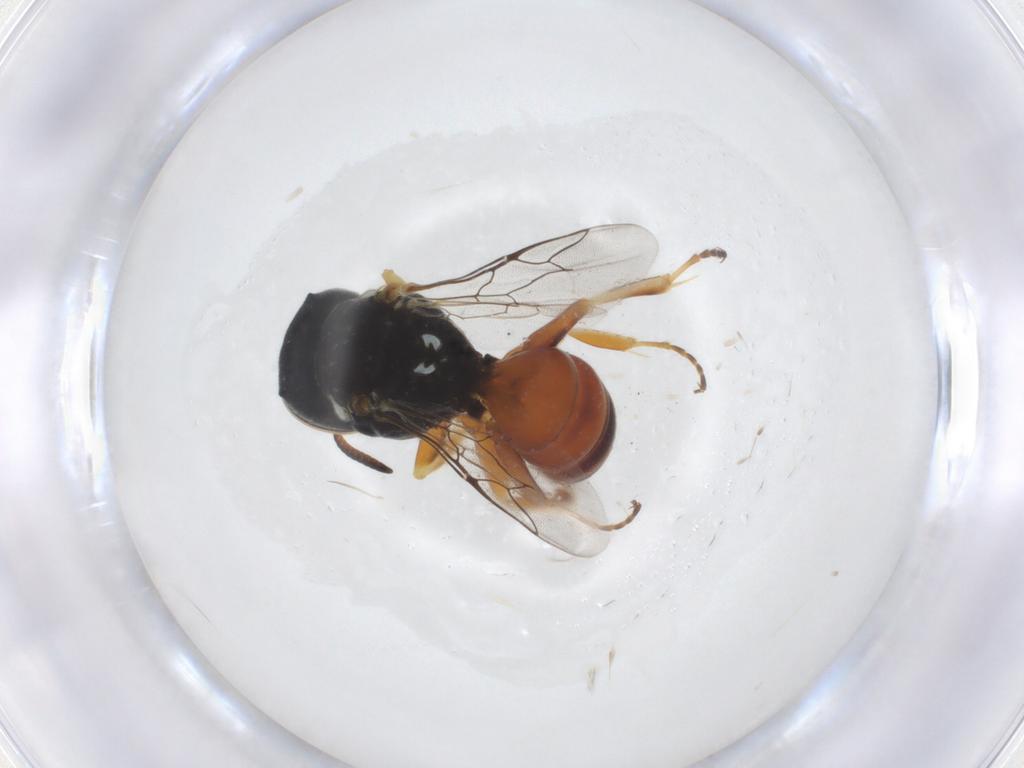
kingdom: Animalia
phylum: Arthropoda
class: Insecta
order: Hymenoptera
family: Crabronidae
